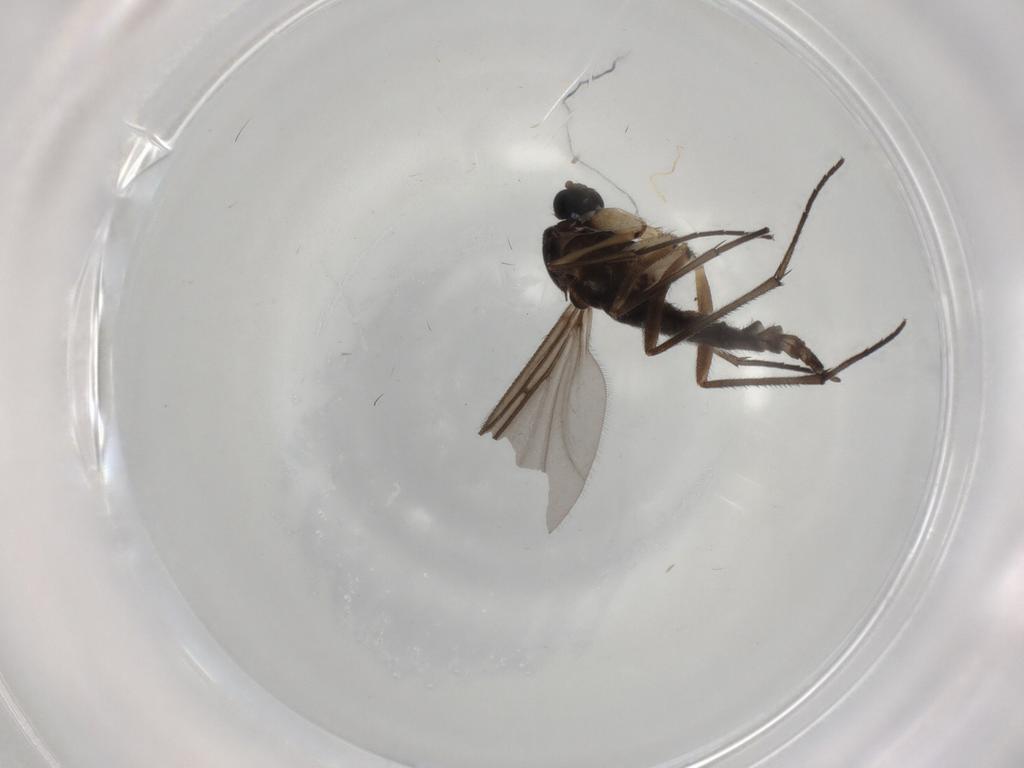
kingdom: Animalia
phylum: Arthropoda
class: Insecta
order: Diptera
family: Sciaridae
